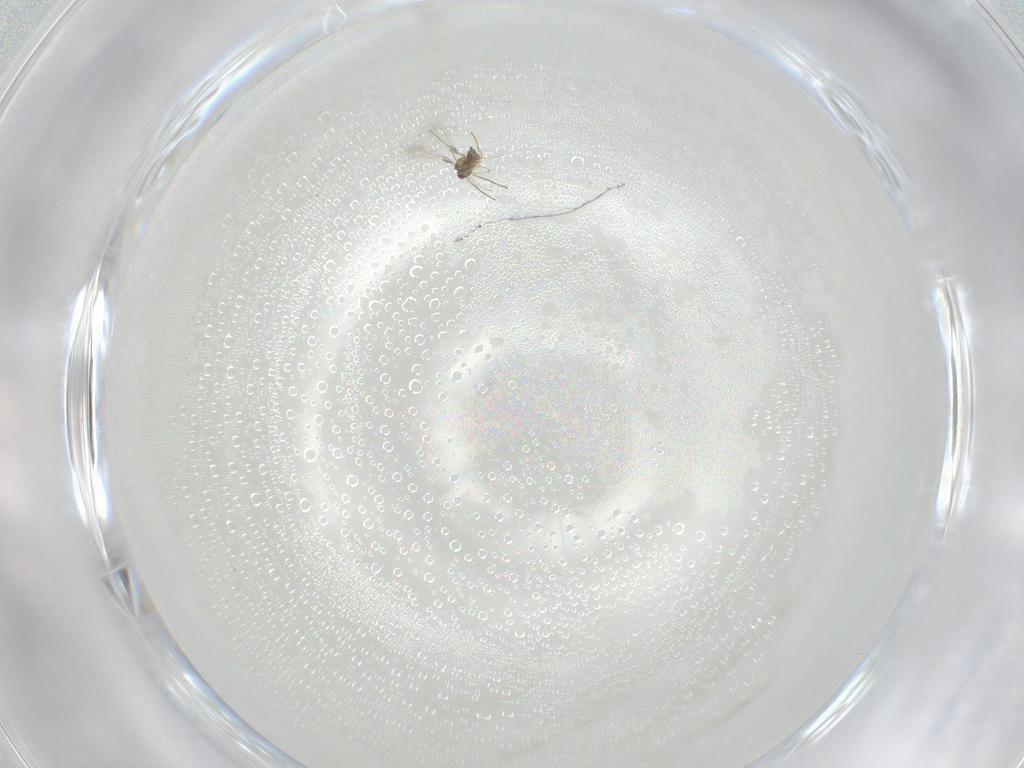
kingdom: Animalia
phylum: Arthropoda
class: Insecta
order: Hymenoptera
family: Mymaridae
